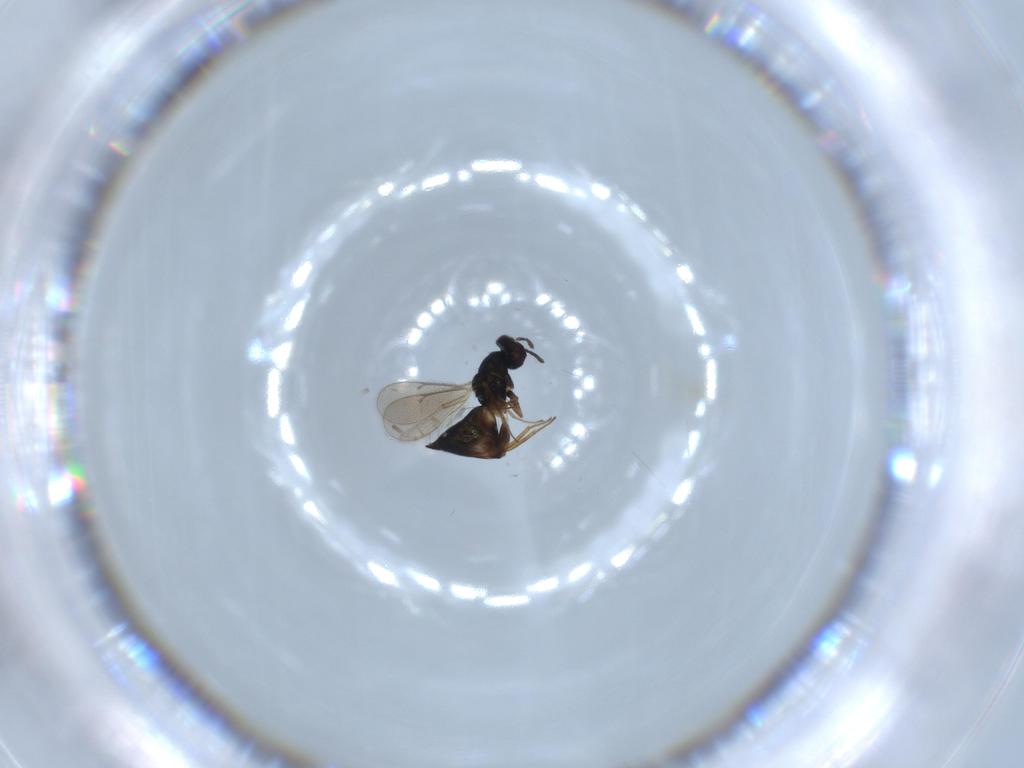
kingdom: Animalia
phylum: Arthropoda
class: Insecta
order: Hymenoptera
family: Eulophidae
